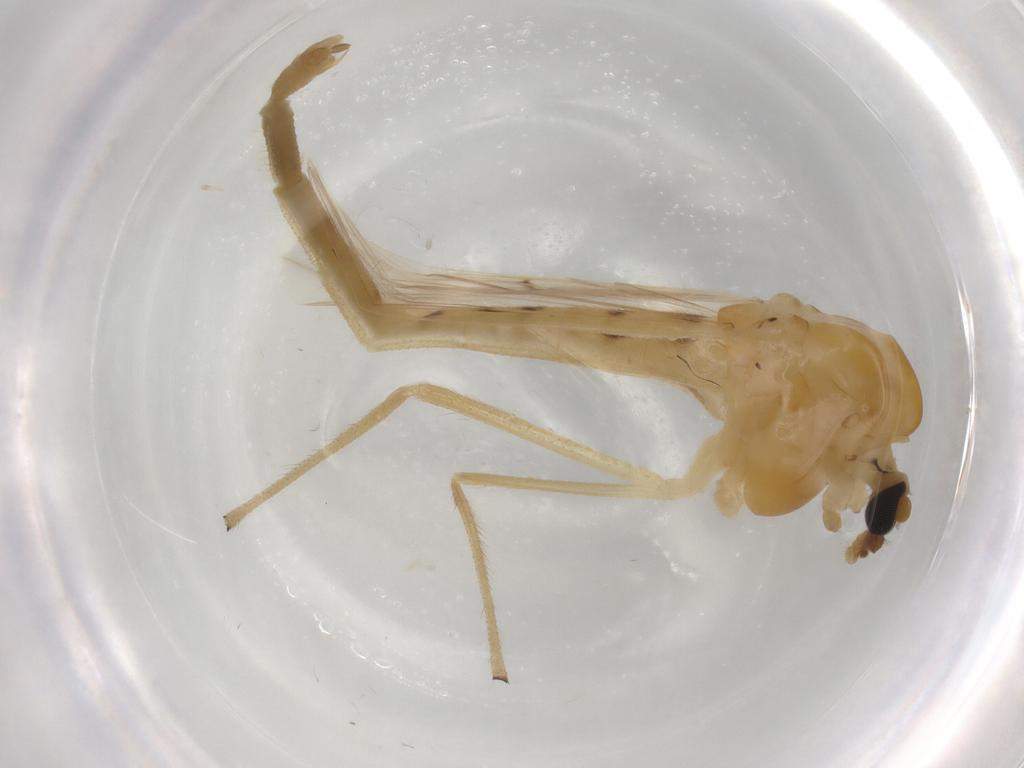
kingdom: Animalia
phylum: Arthropoda
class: Insecta
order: Diptera
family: Chironomidae
